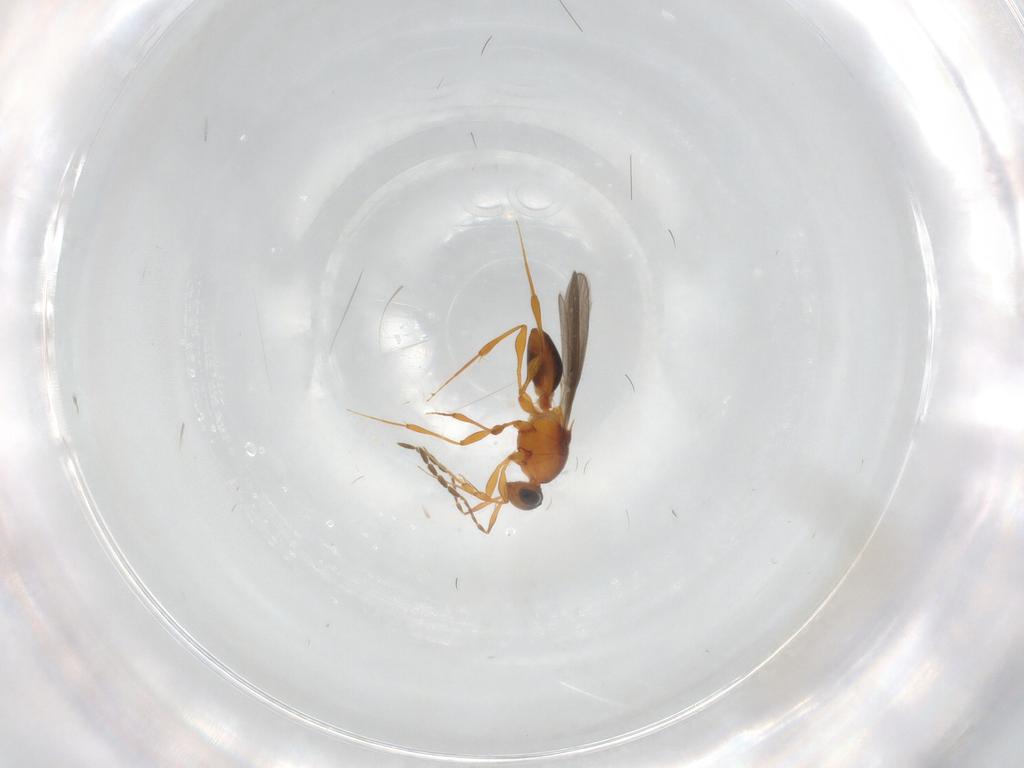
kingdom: Animalia
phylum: Arthropoda
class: Insecta
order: Hymenoptera
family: Platygastridae
